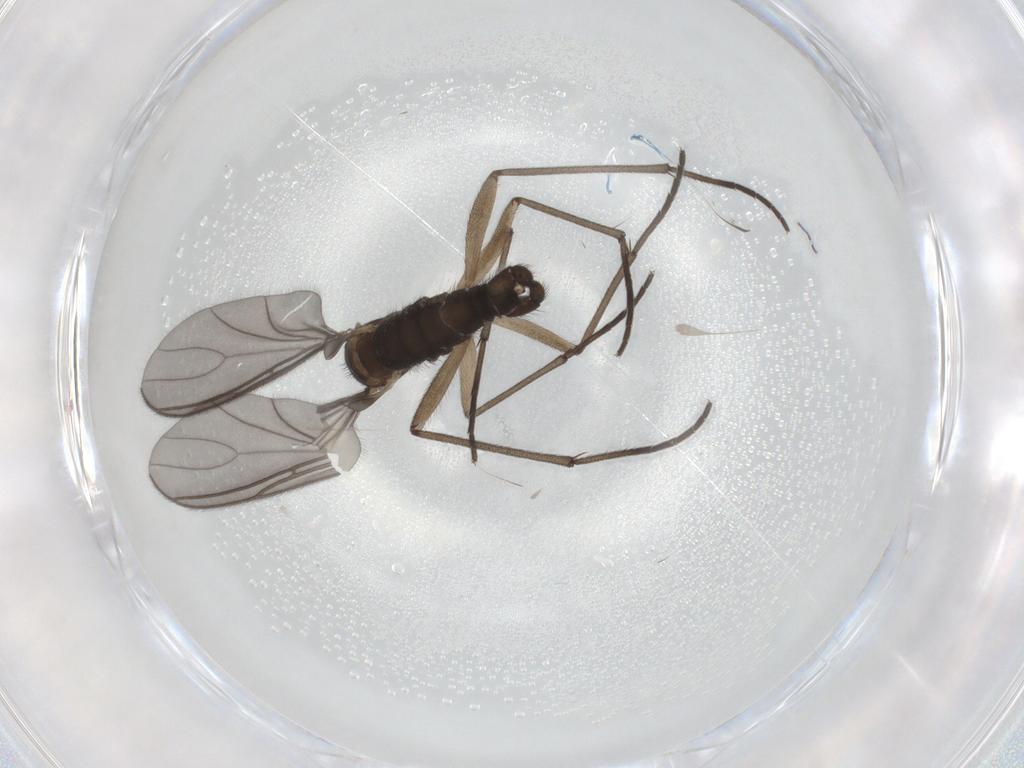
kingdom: Animalia
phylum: Arthropoda
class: Insecta
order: Diptera
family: Sciaridae
